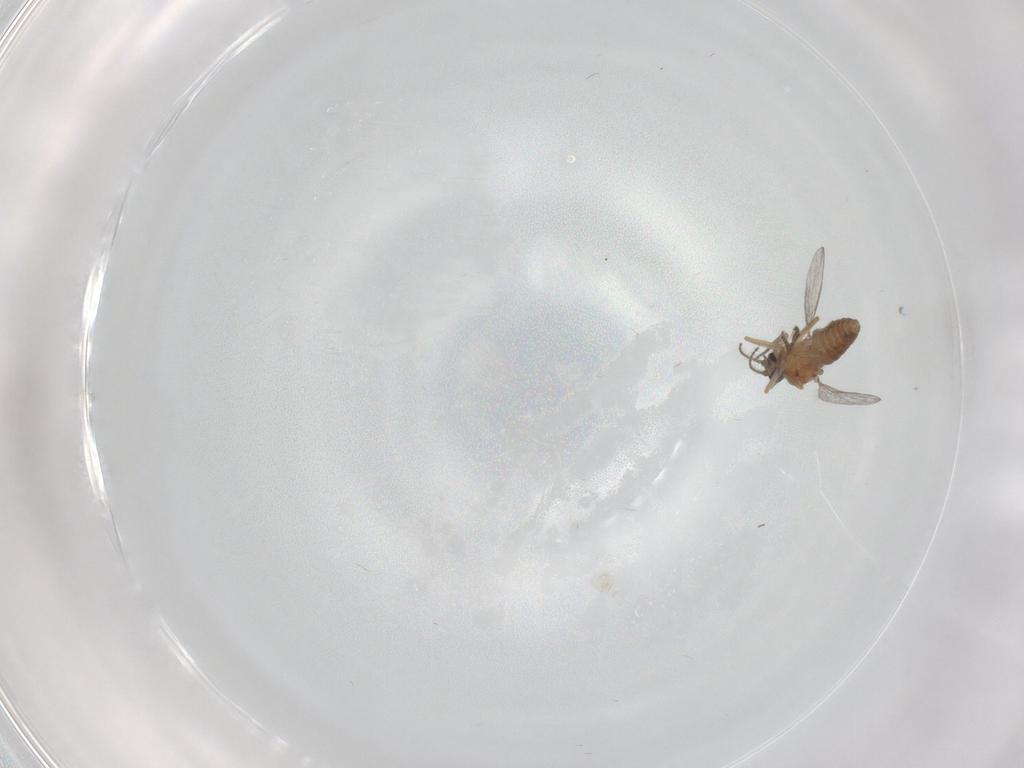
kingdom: Animalia
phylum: Arthropoda
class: Insecta
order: Diptera
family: Ceratopogonidae
